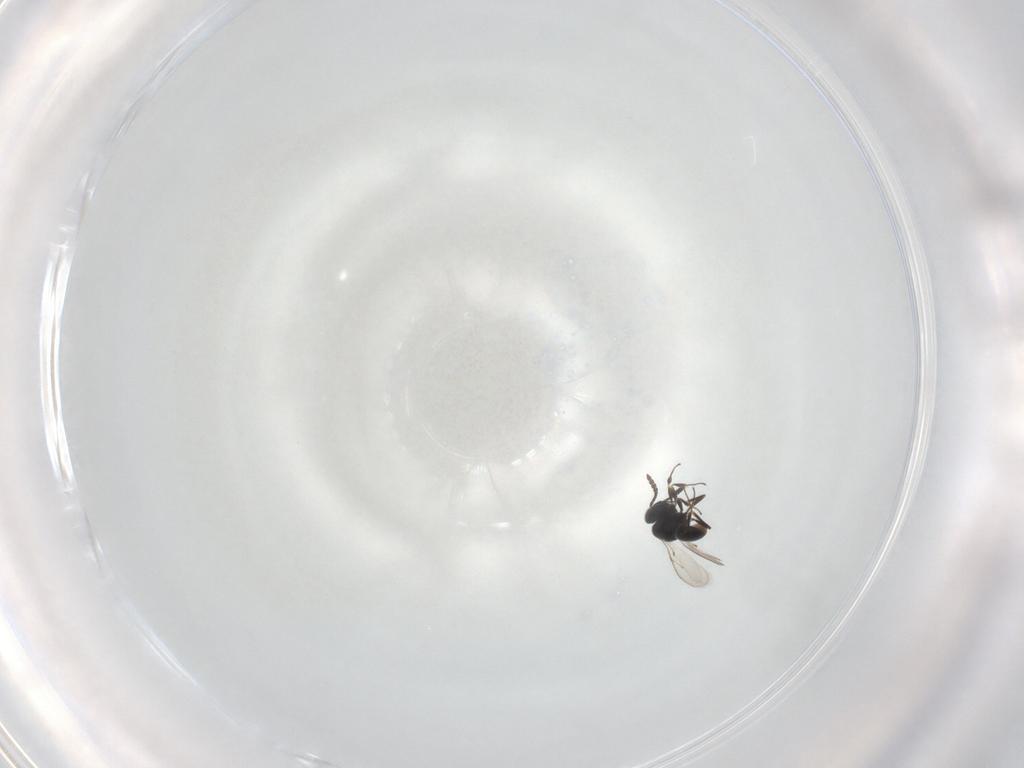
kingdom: Animalia
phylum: Arthropoda
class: Insecta
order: Hymenoptera
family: Scelionidae
